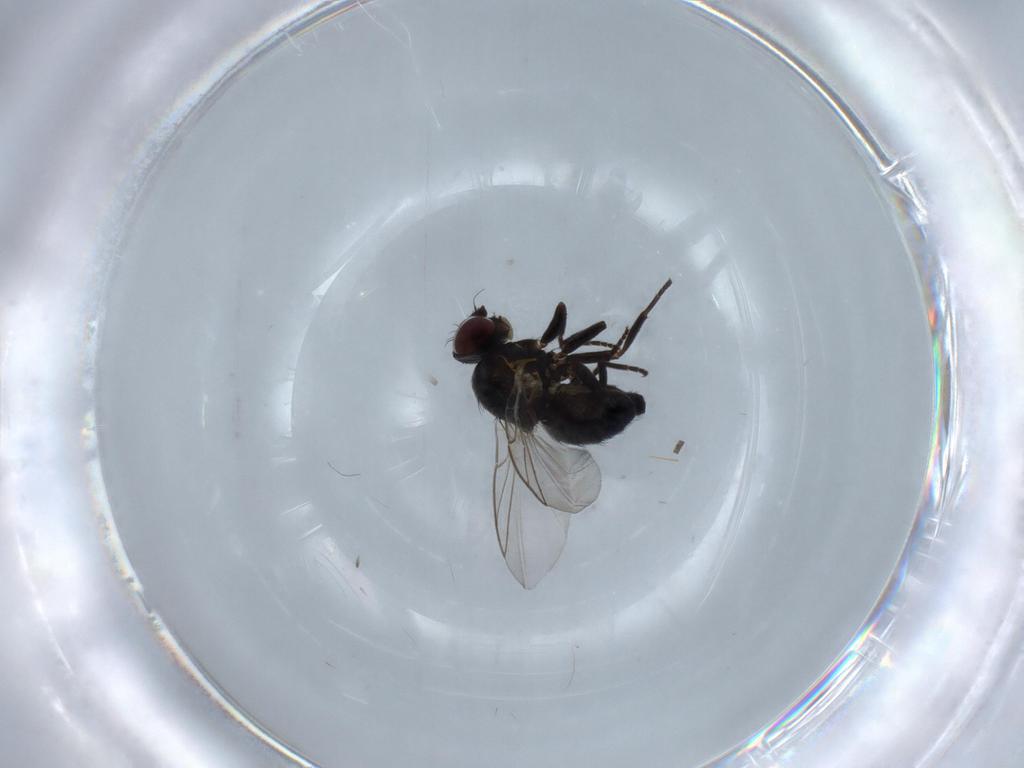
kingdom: Animalia
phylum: Arthropoda
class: Insecta
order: Diptera
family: Agromyzidae
